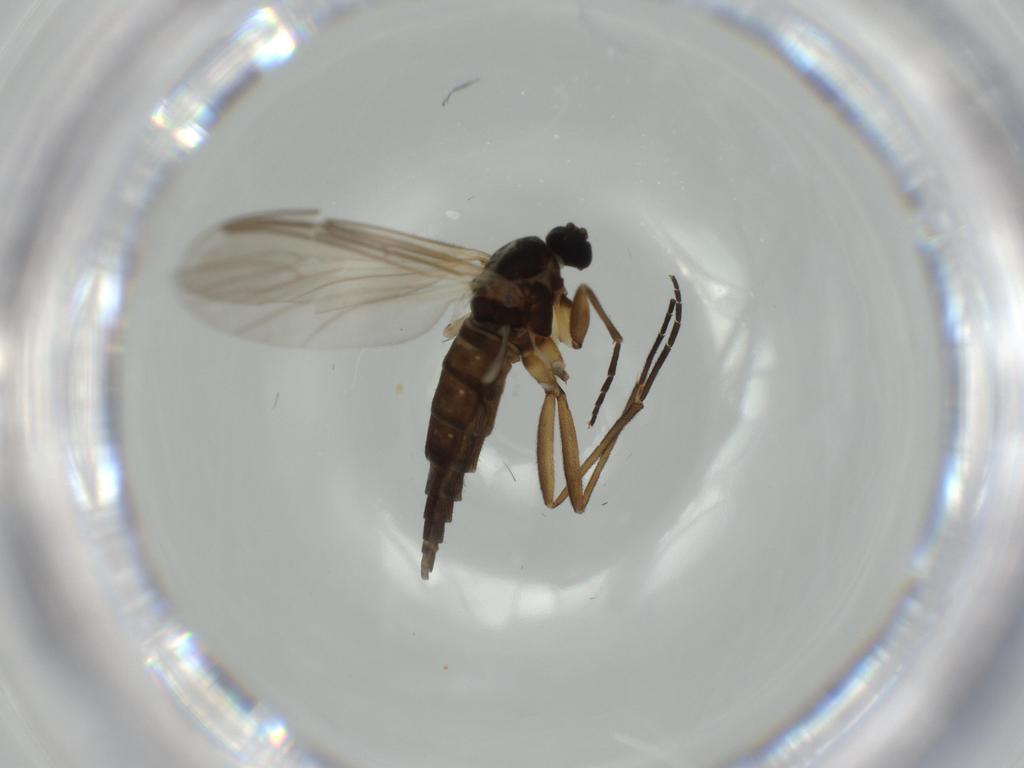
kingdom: Animalia
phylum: Arthropoda
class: Insecta
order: Diptera
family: Sciaridae
